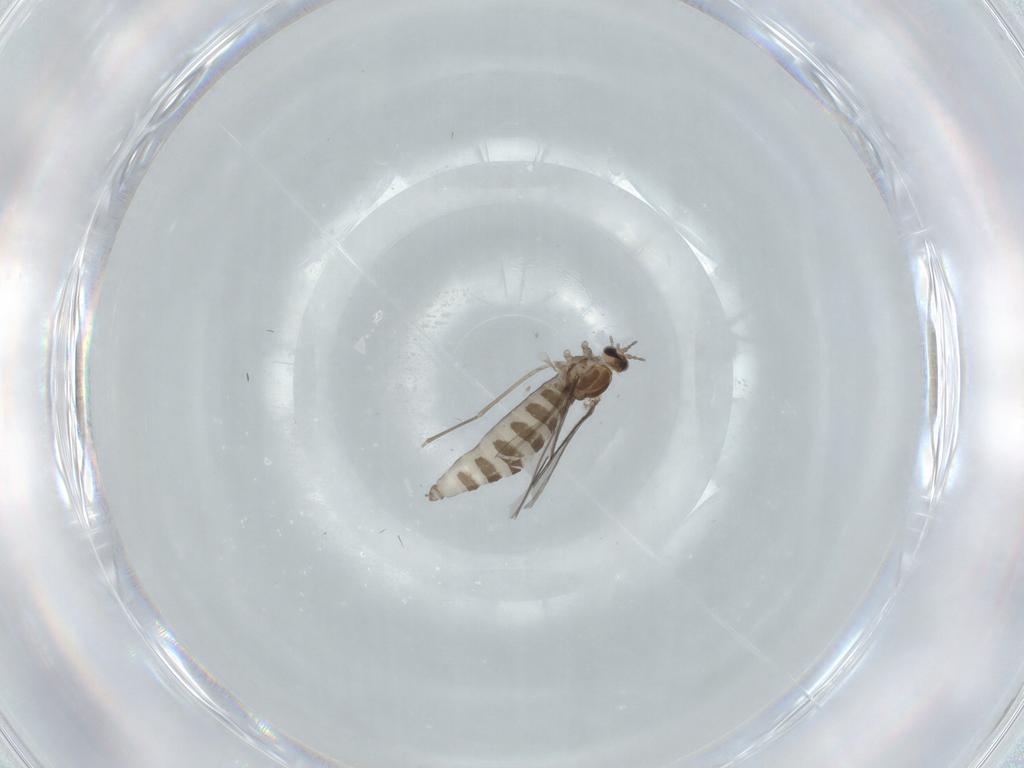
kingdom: Animalia
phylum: Arthropoda
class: Insecta
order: Diptera
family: Cecidomyiidae
